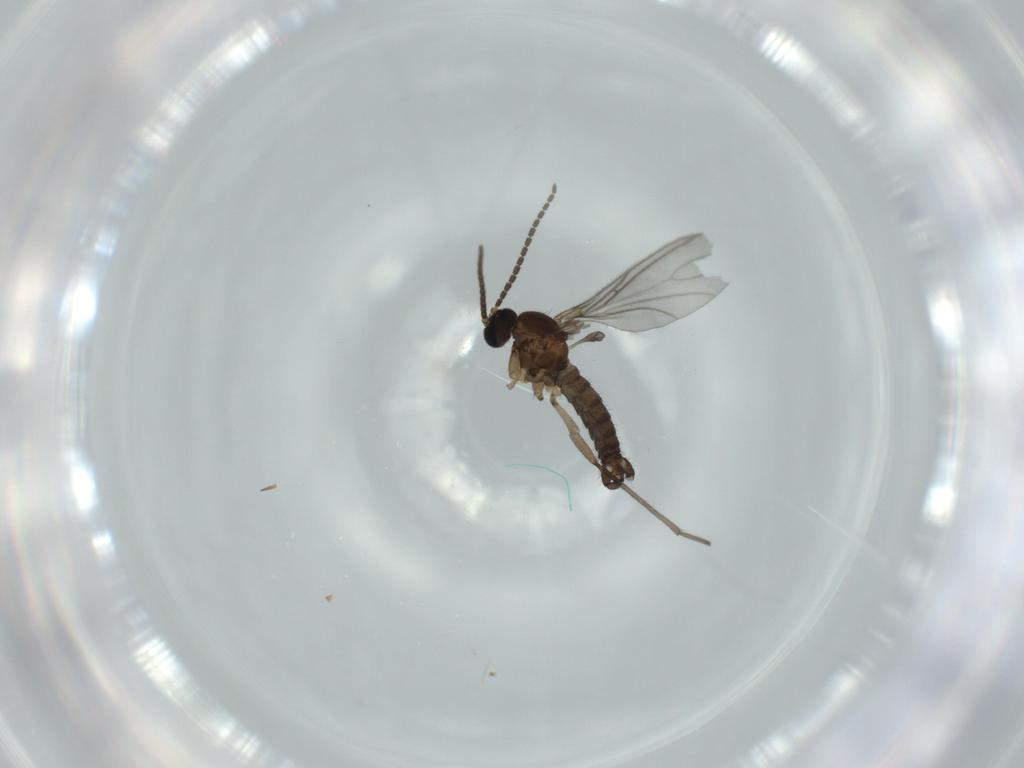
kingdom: Animalia
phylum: Arthropoda
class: Insecta
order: Diptera
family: Sciaridae
